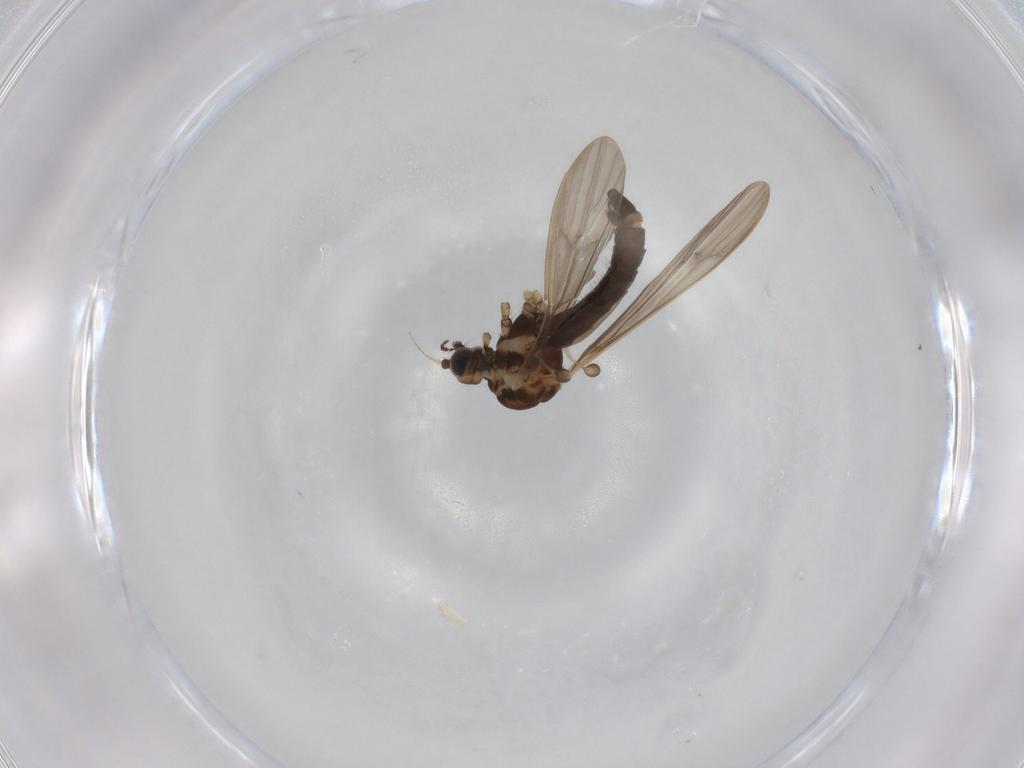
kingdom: Animalia
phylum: Arthropoda
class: Insecta
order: Diptera
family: Limoniidae
